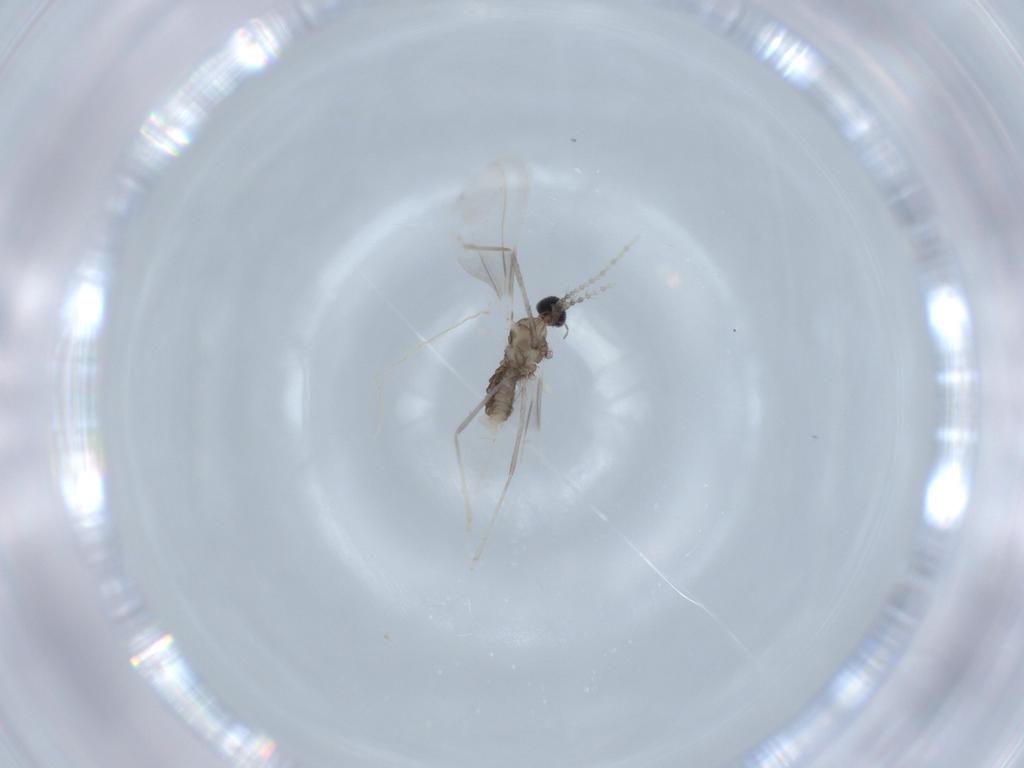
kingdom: Animalia
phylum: Arthropoda
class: Insecta
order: Diptera
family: Cecidomyiidae
